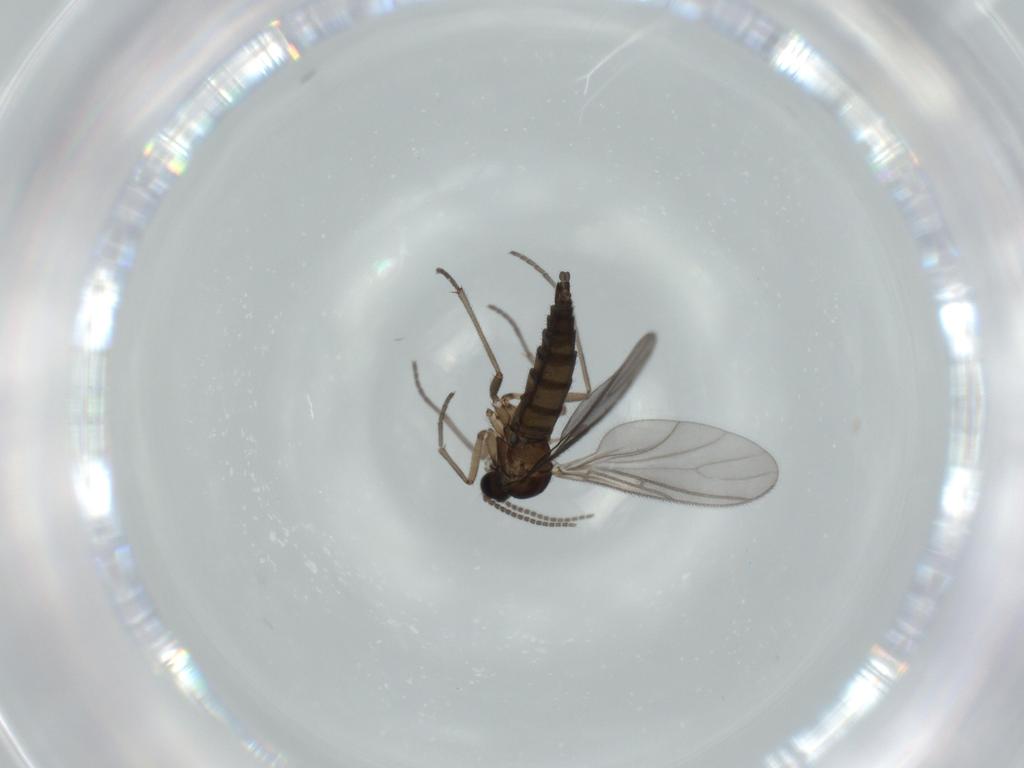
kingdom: Animalia
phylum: Arthropoda
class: Insecta
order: Diptera
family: Sciaridae
